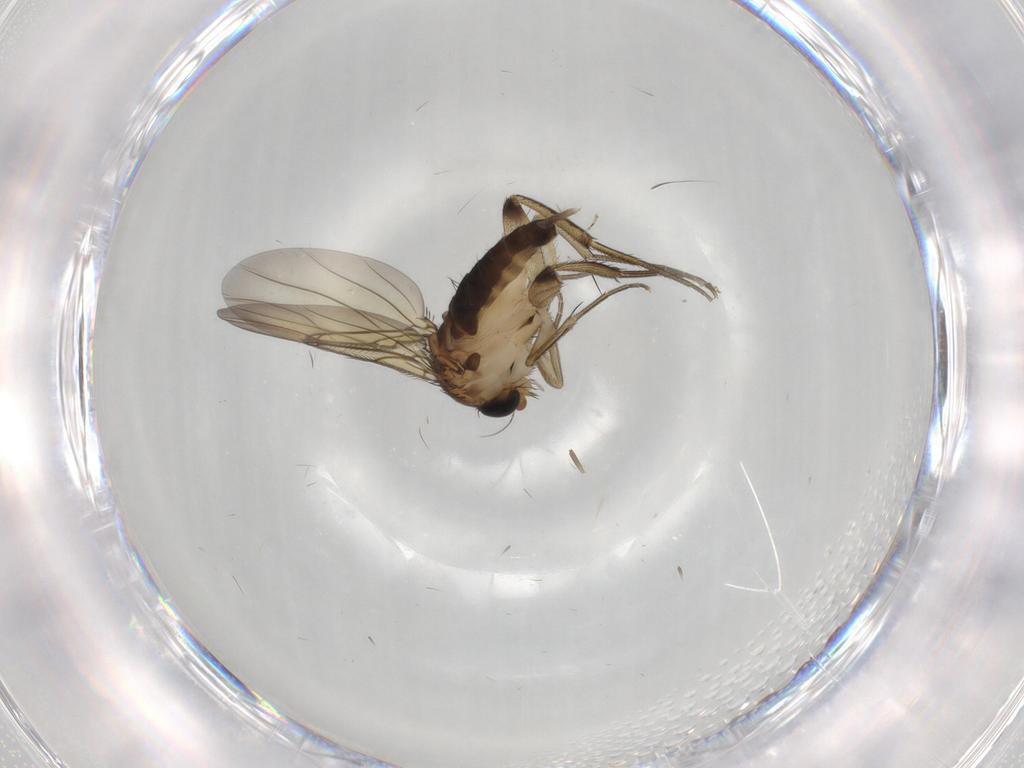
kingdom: Animalia
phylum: Arthropoda
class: Insecta
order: Diptera
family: Phoridae
